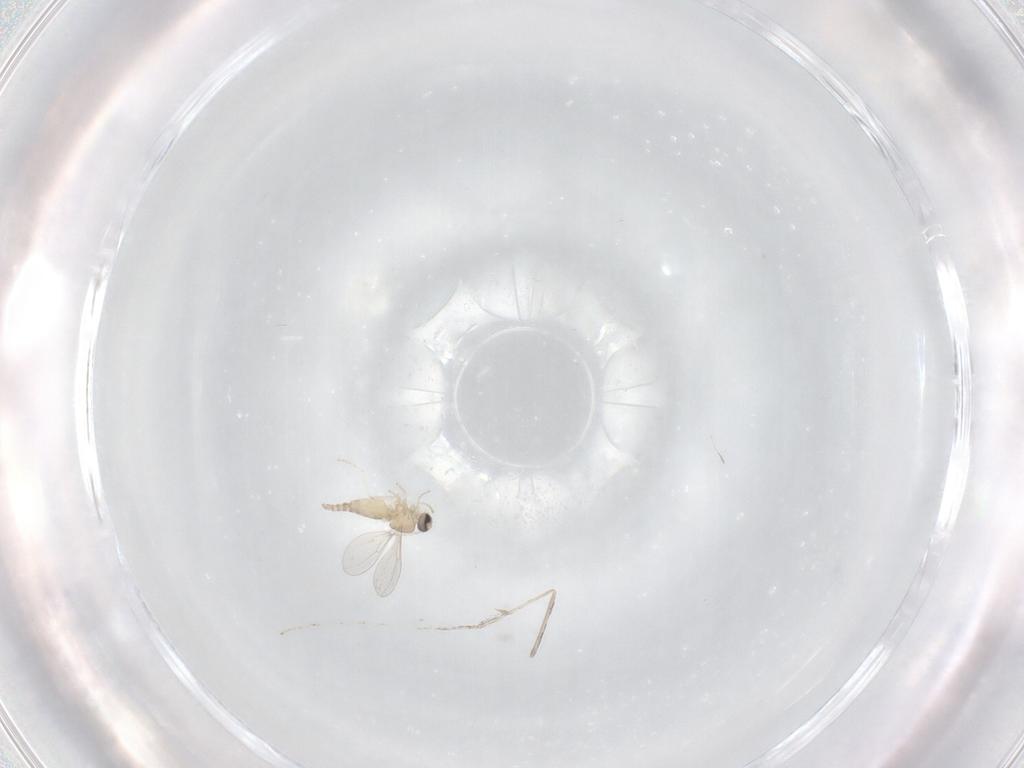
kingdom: Animalia
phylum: Arthropoda
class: Insecta
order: Diptera
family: Cecidomyiidae
